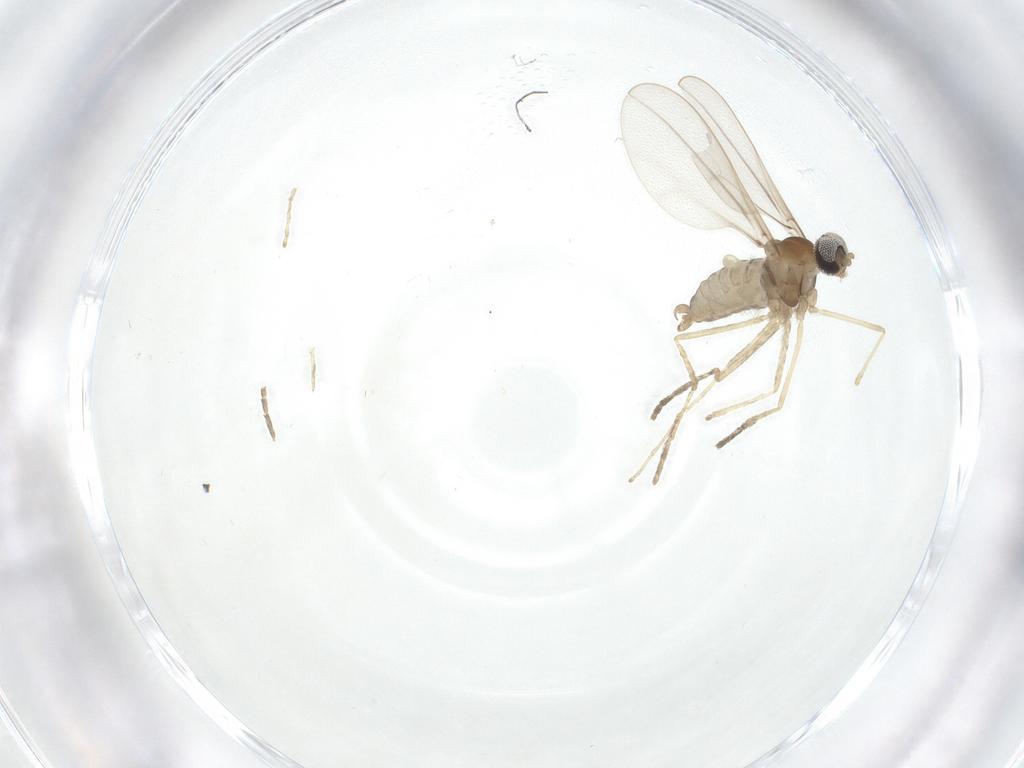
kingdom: Animalia
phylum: Arthropoda
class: Insecta
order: Diptera
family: Cecidomyiidae
